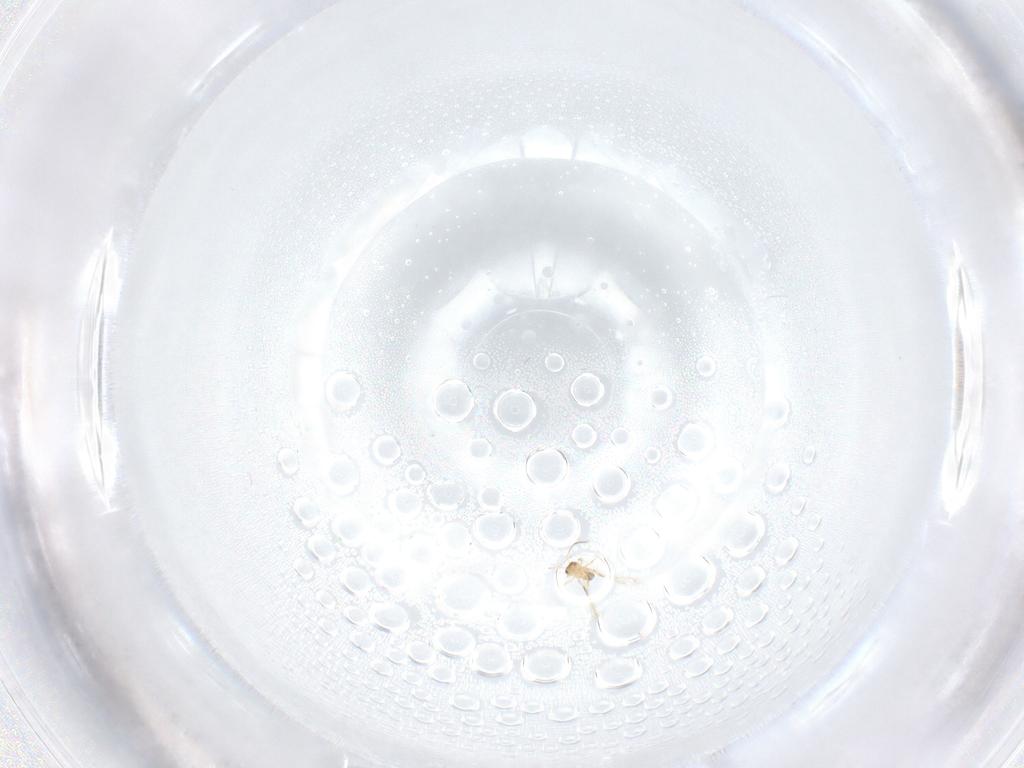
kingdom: Animalia
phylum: Arthropoda
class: Insecta
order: Hymenoptera
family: Mymaridae
